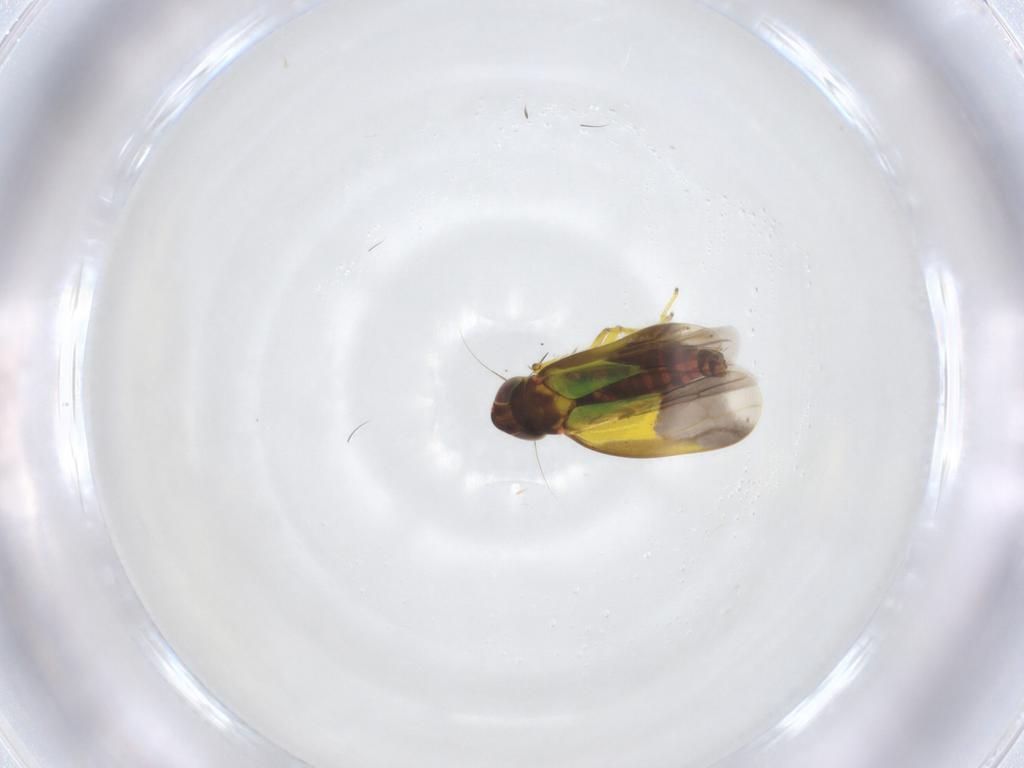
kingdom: Animalia
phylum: Arthropoda
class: Insecta
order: Hemiptera
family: Cicadellidae
